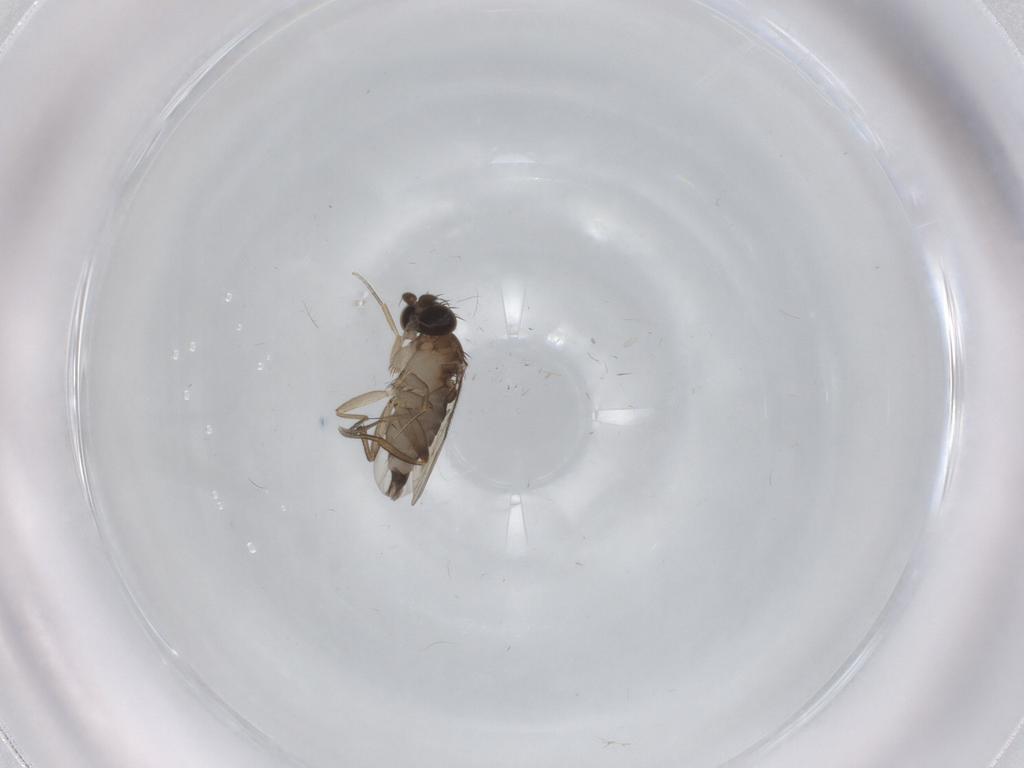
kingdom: Animalia
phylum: Arthropoda
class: Insecta
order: Diptera
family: Phoridae
